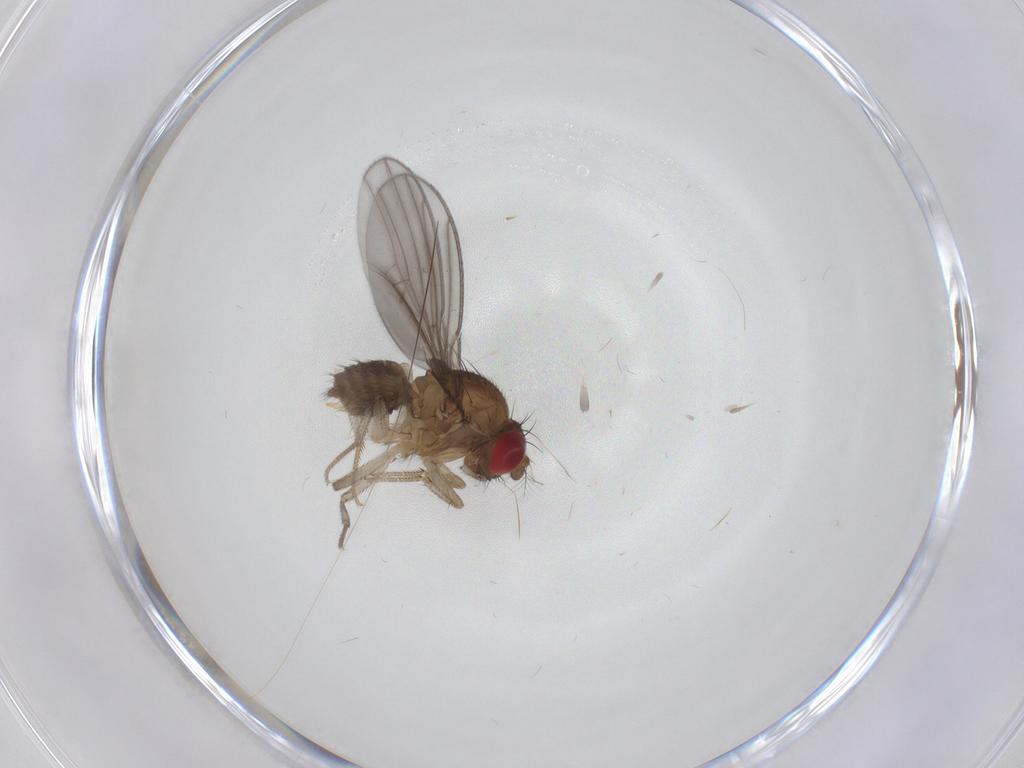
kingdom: Animalia
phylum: Arthropoda
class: Insecta
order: Diptera
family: Drosophilidae
